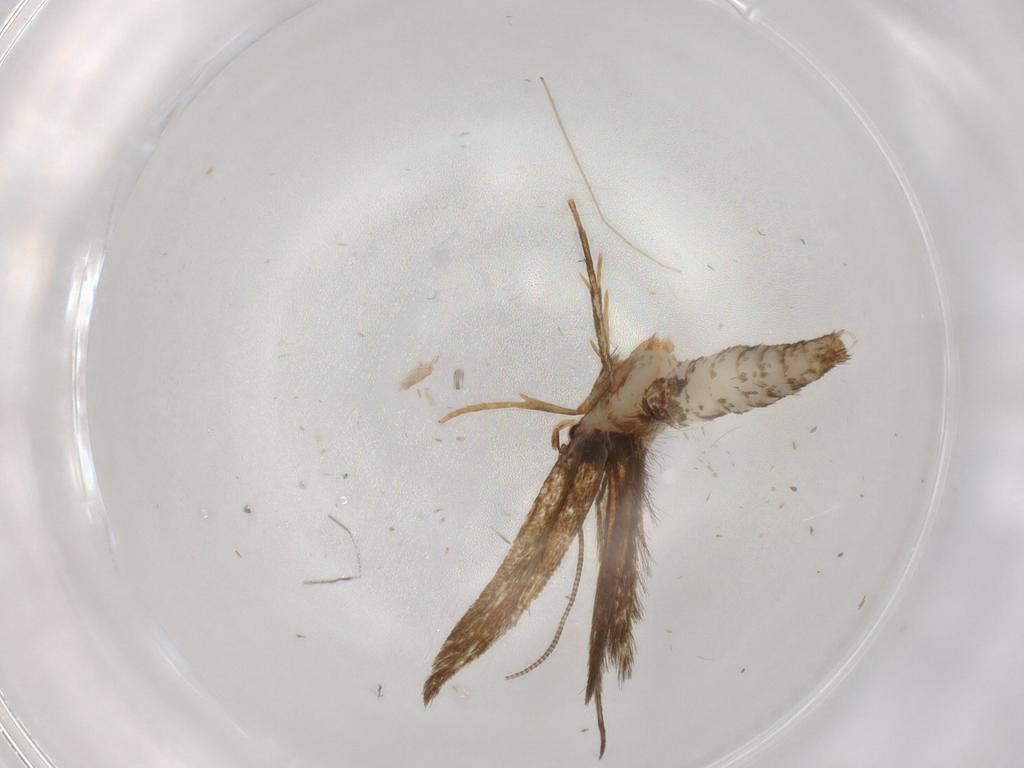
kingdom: Animalia
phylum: Arthropoda
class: Insecta
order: Lepidoptera
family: Tineidae
